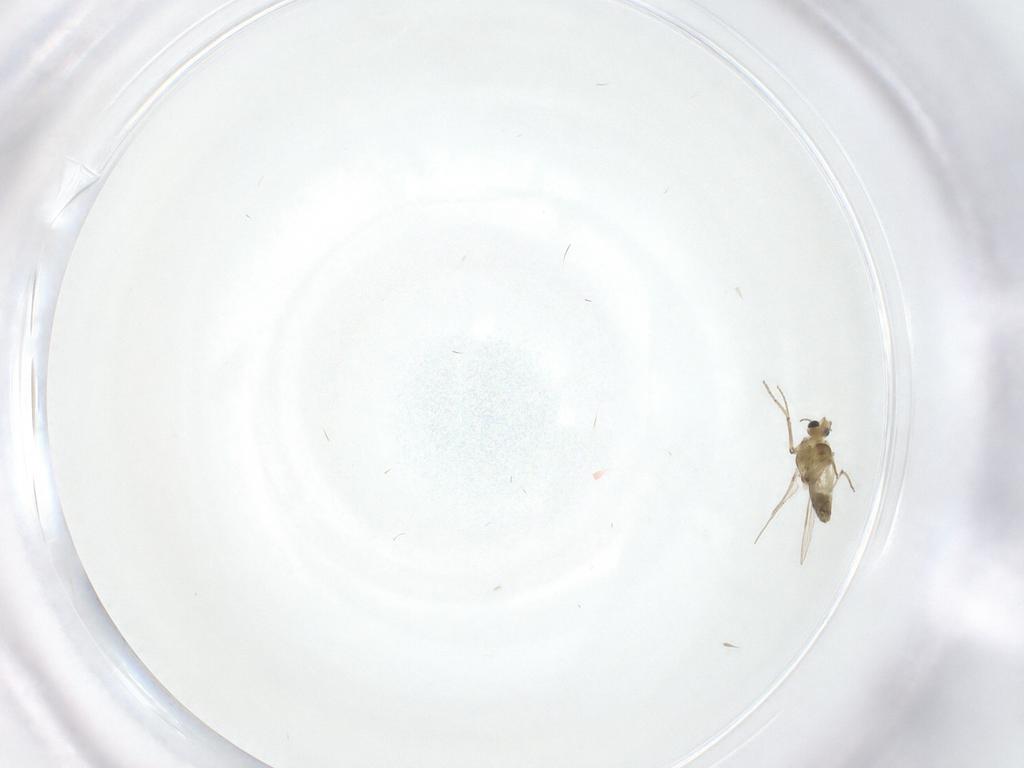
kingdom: Animalia
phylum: Arthropoda
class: Insecta
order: Diptera
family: Chironomidae
